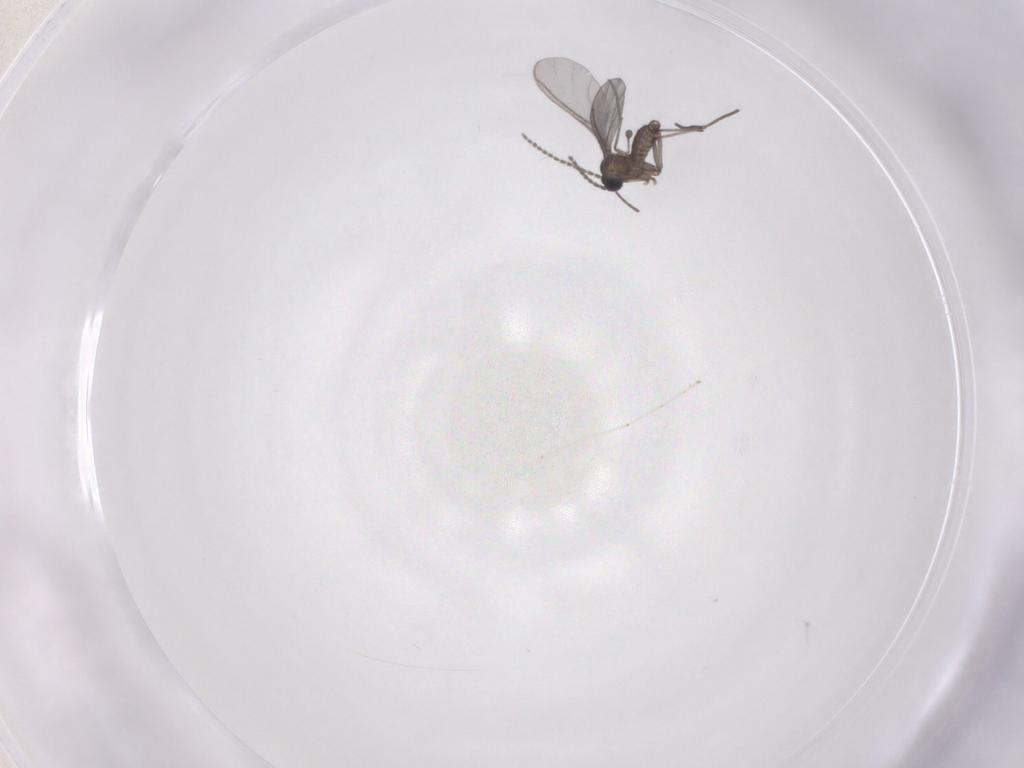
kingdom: Animalia
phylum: Arthropoda
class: Insecta
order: Diptera
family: Sciaridae
